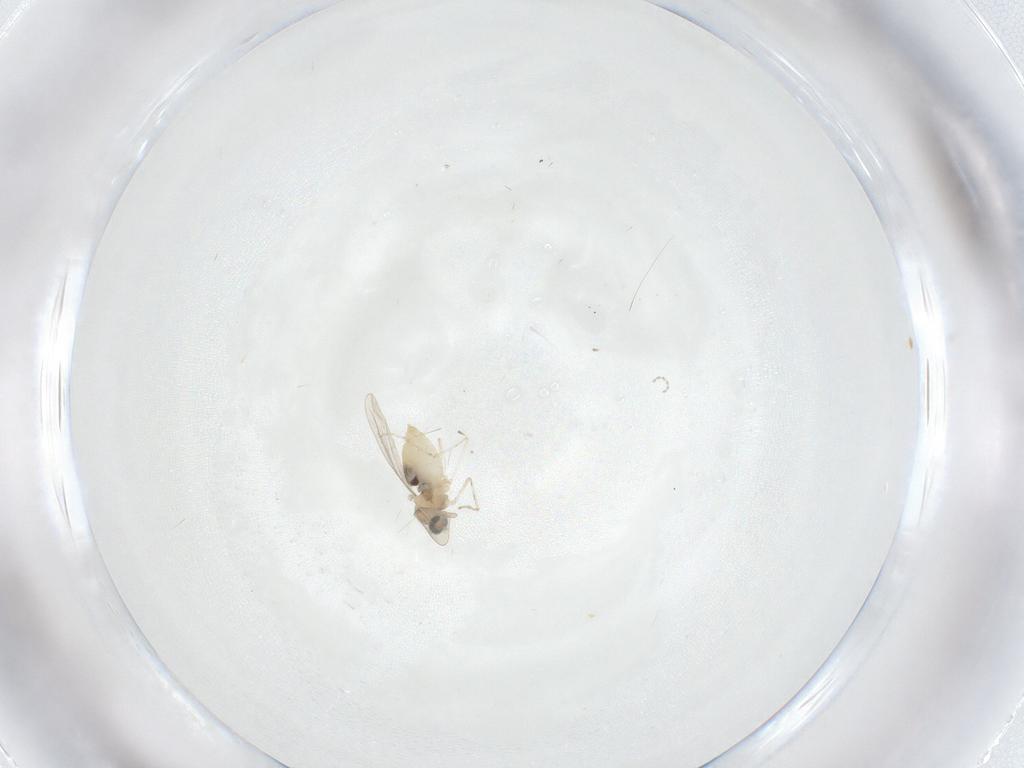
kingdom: Animalia
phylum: Arthropoda
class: Insecta
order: Diptera
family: Cecidomyiidae
